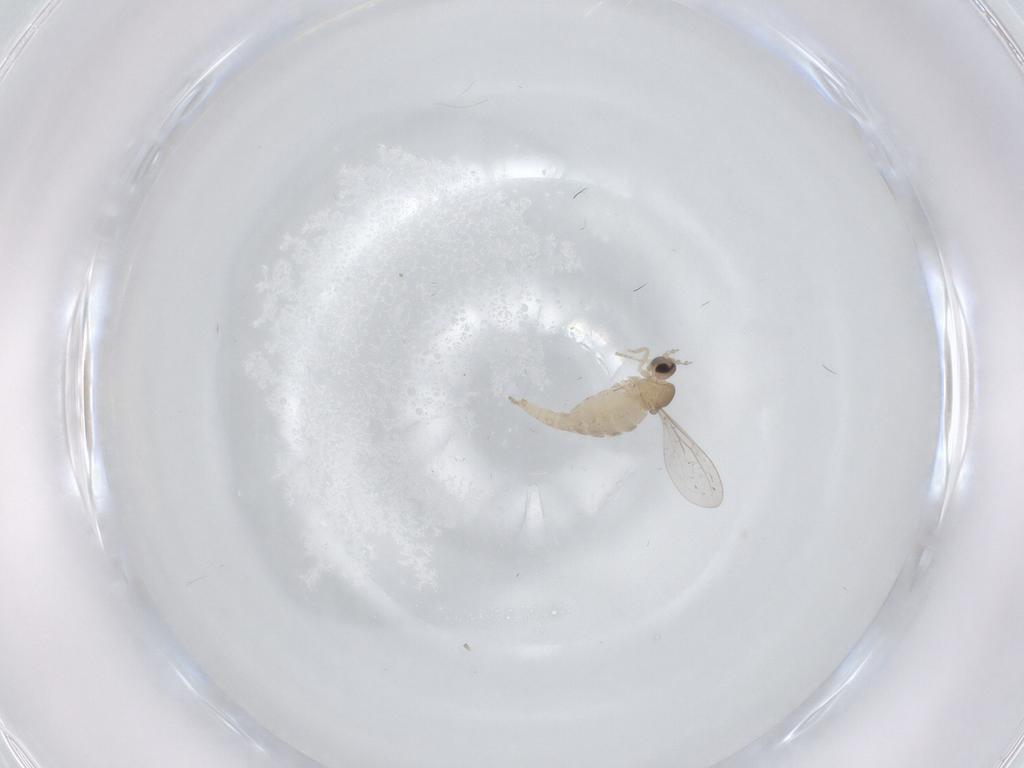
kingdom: Animalia
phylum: Arthropoda
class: Insecta
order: Diptera
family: Cecidomyiidae
